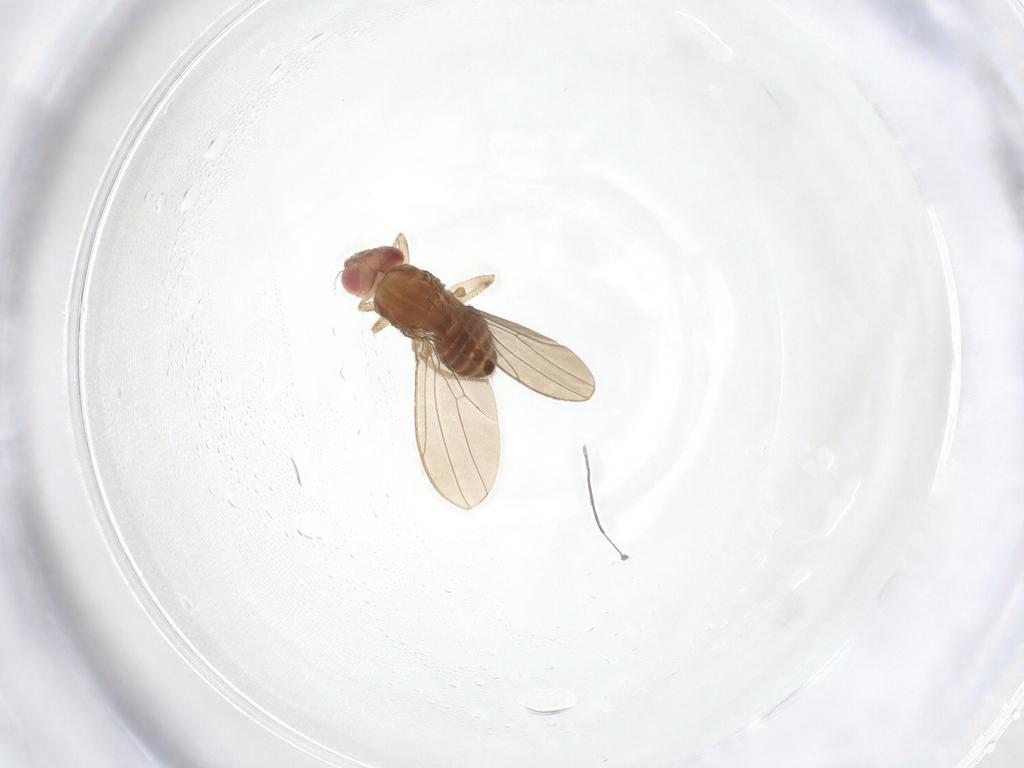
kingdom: Animalia
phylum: Arthropoda
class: Insecta
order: Diptera
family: Drosophilidae
